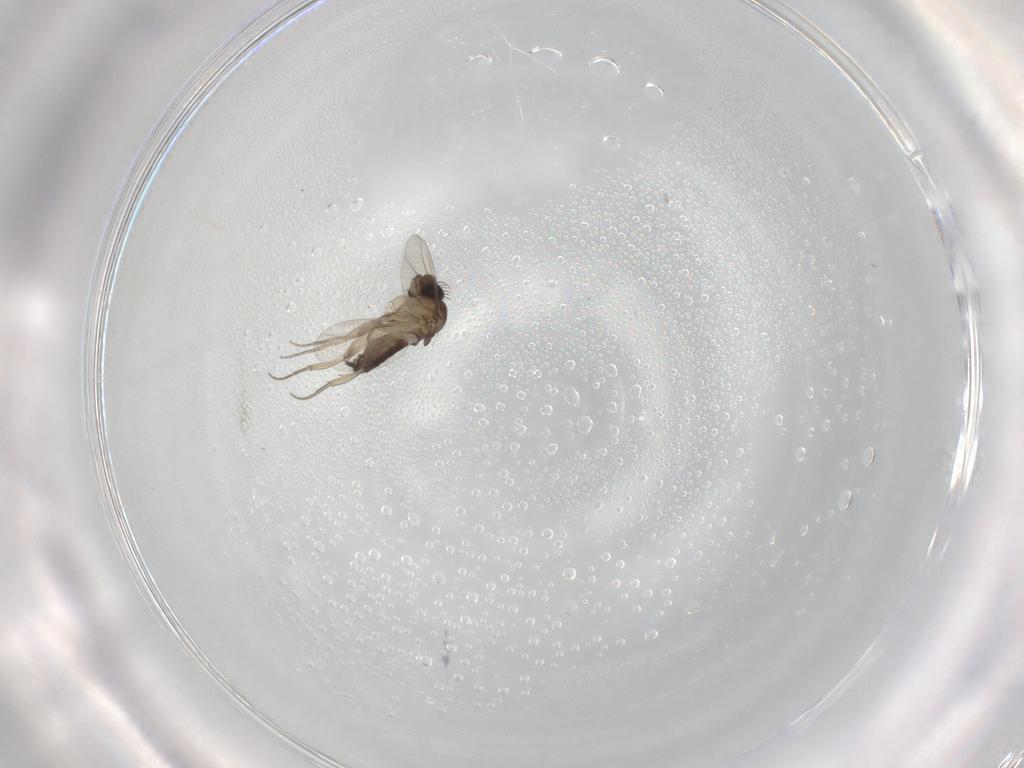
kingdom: Animalia
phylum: Arthropoda
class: Insecta
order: Diptera
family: Phoridae
